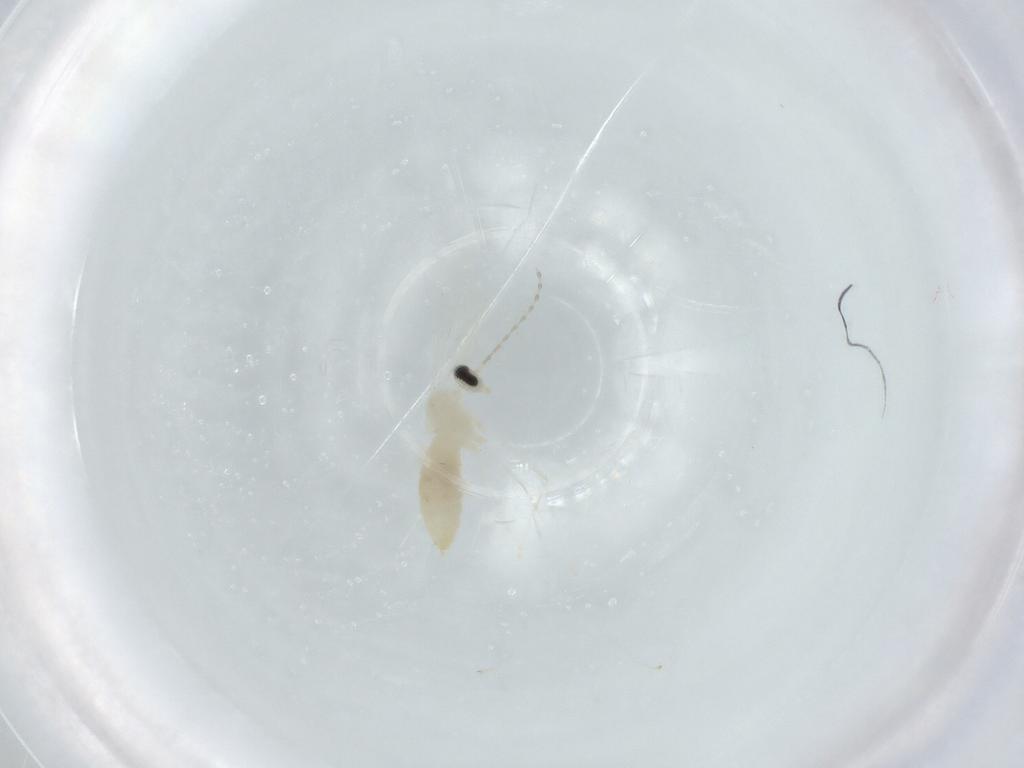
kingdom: Animalia
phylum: Arthropoda
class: Insecta
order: Diptera
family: Cecidomyiidae
